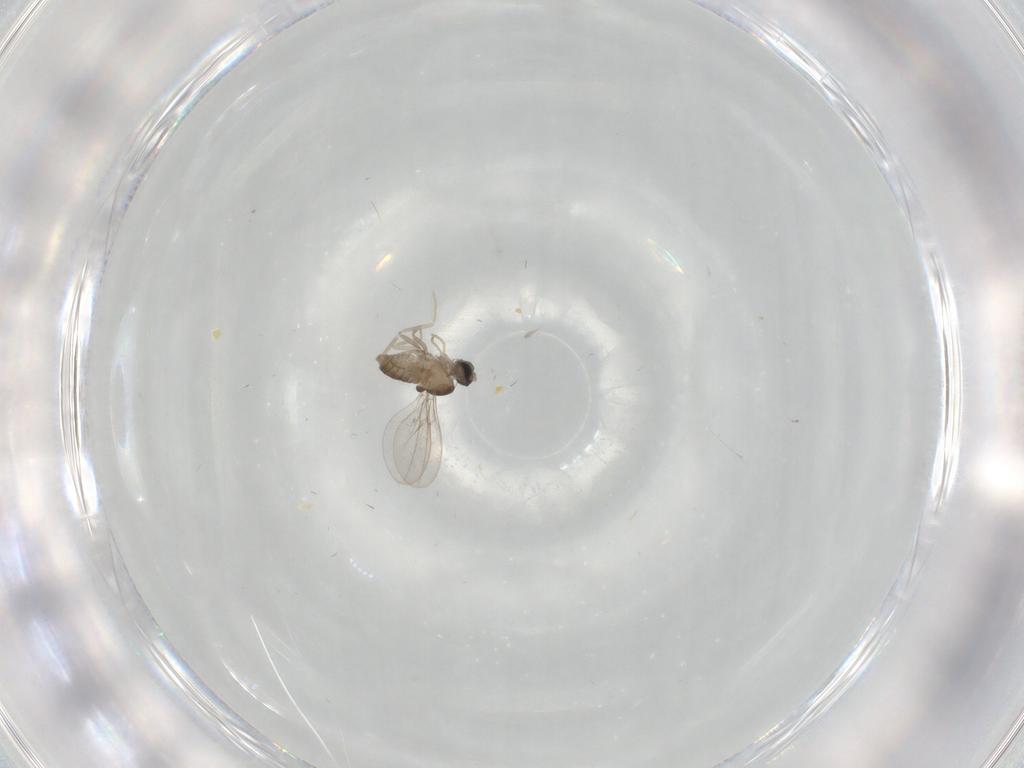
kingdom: Animalia
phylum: Arthropoda
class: Insecta
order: Diptera
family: Cecidomyiidae
